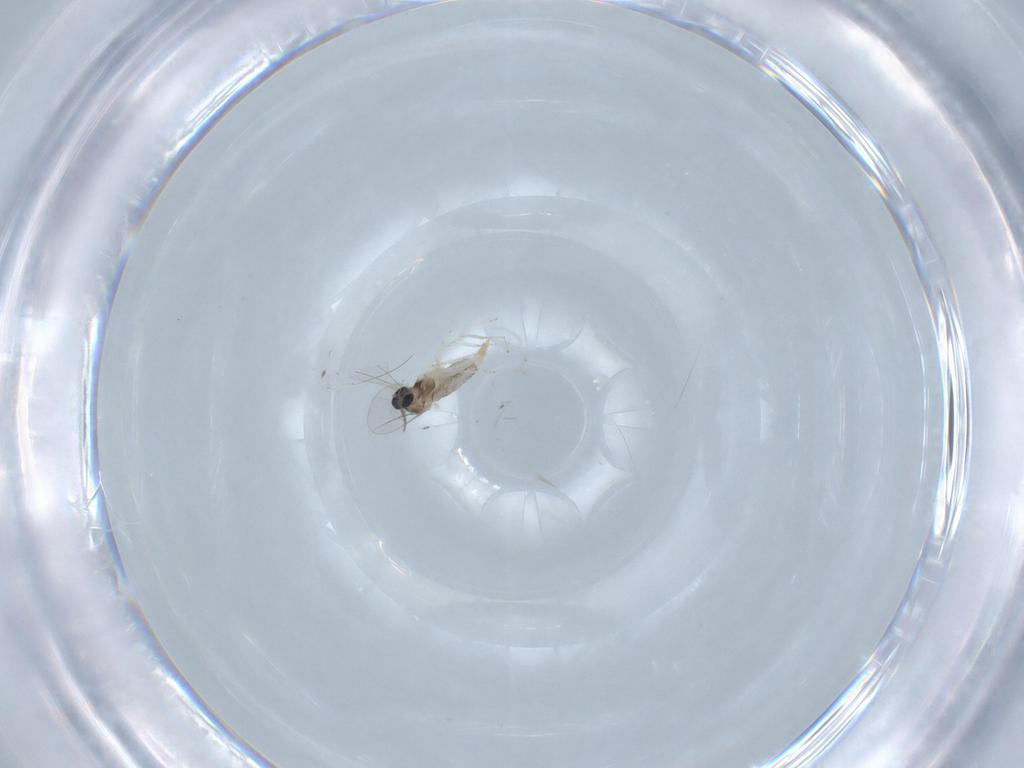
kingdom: Animalia
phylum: Arthropoda
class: Insecta
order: Diptera
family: Cecidomyiidae
